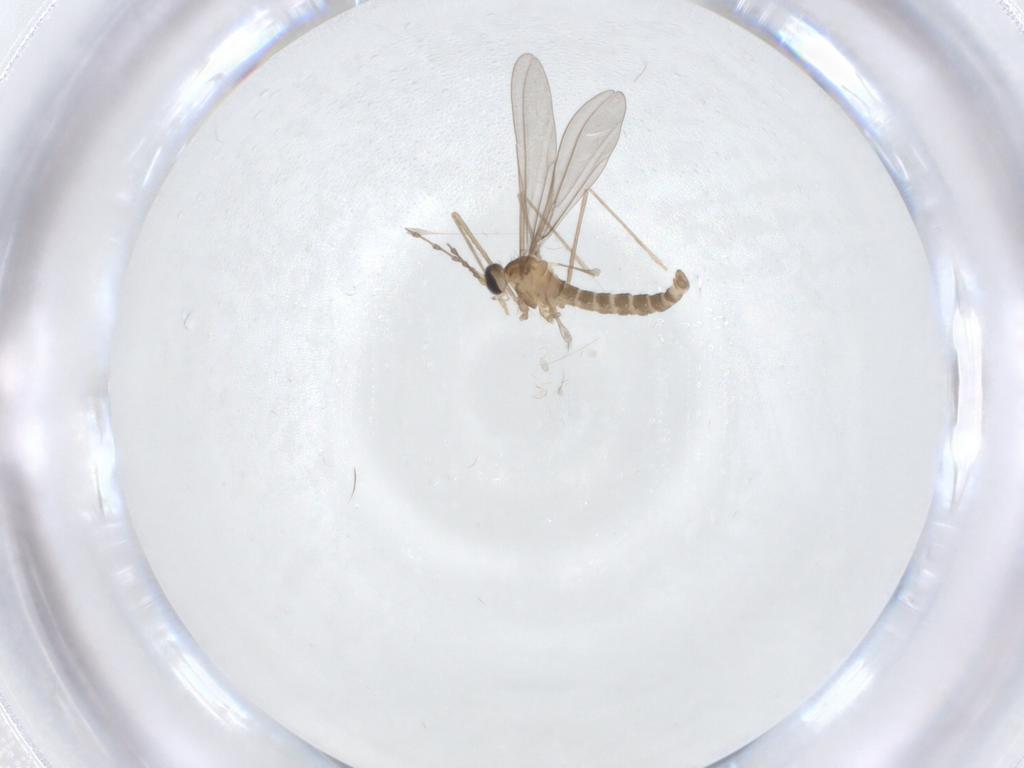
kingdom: Animalia
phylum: Arthropoda
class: Insecta
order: Diptera
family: Cecidomyiidae
